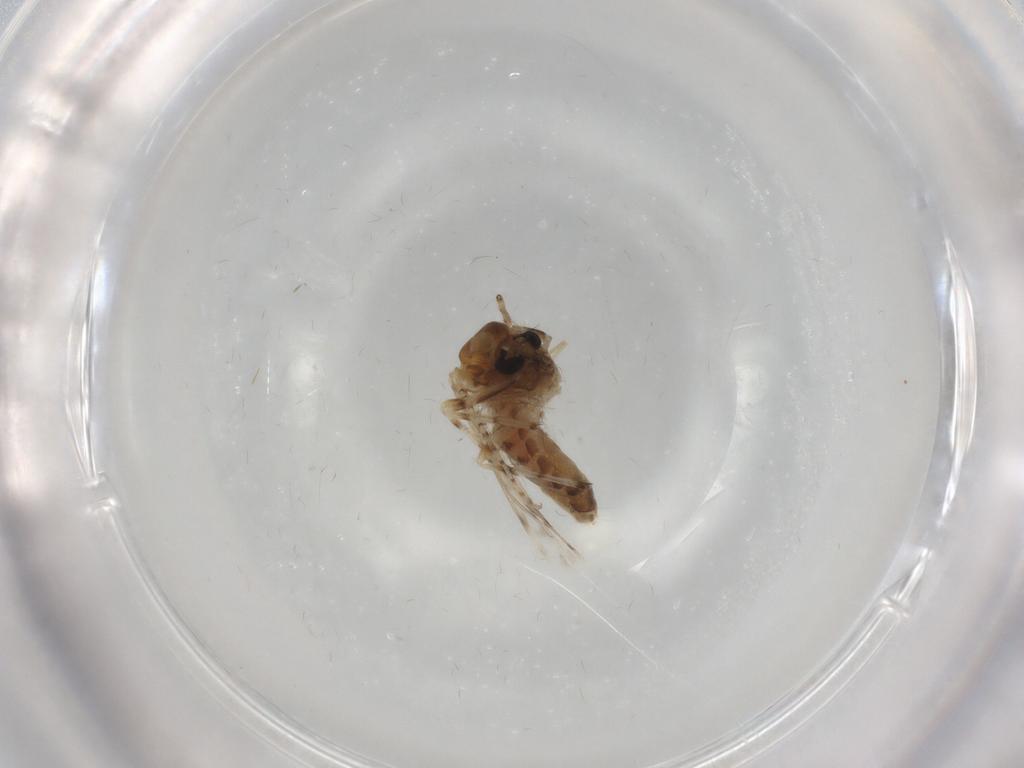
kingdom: Animalia
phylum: Arthropoda
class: Insecta
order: Diptera
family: Chironomidae
